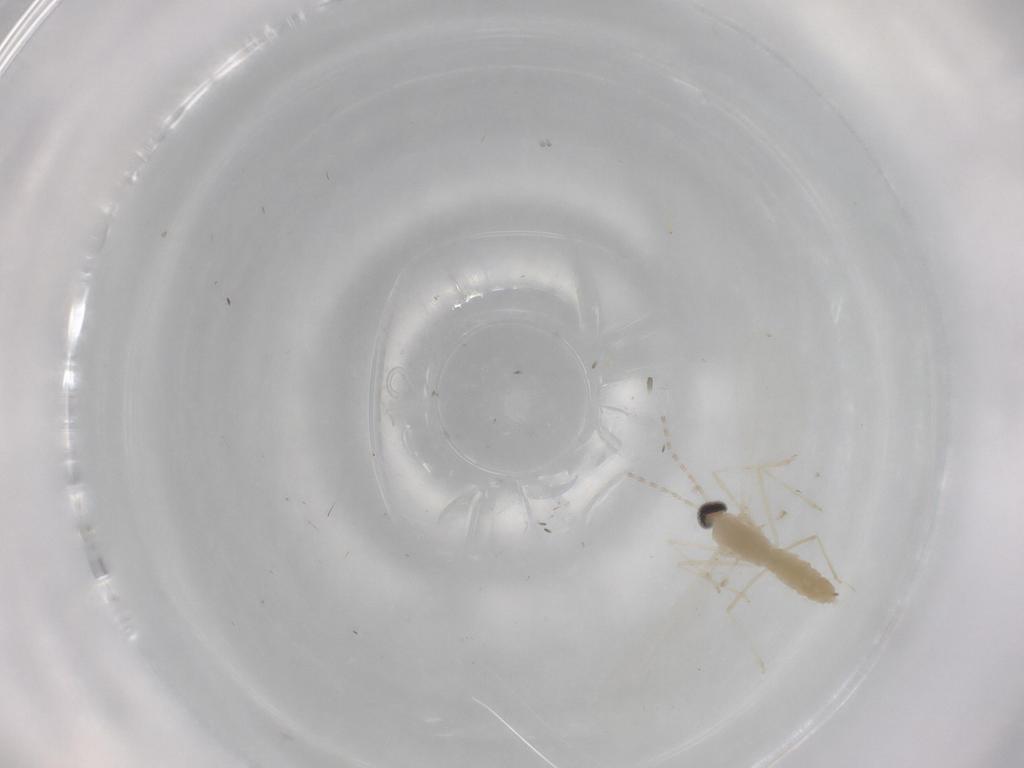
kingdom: Animalia
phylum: Arthropoda
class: Insecta
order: Diptera
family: Cecidomyiidae
